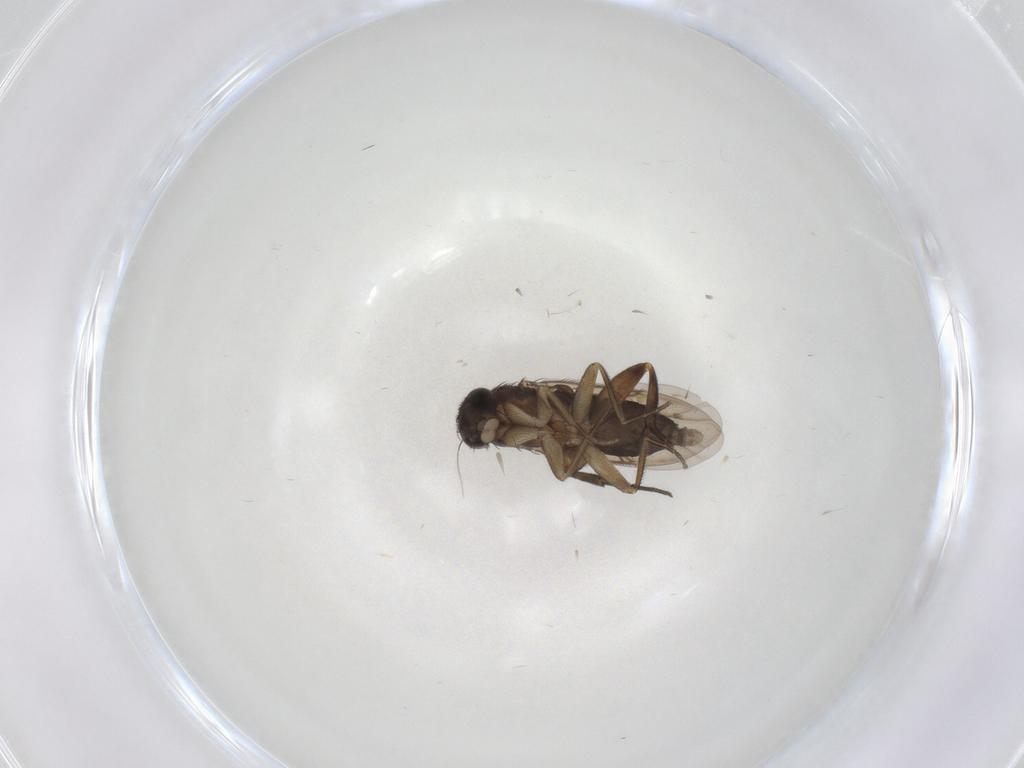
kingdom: Animalia
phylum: Arthropoda
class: Insecta
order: Diptera
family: Phoridae
